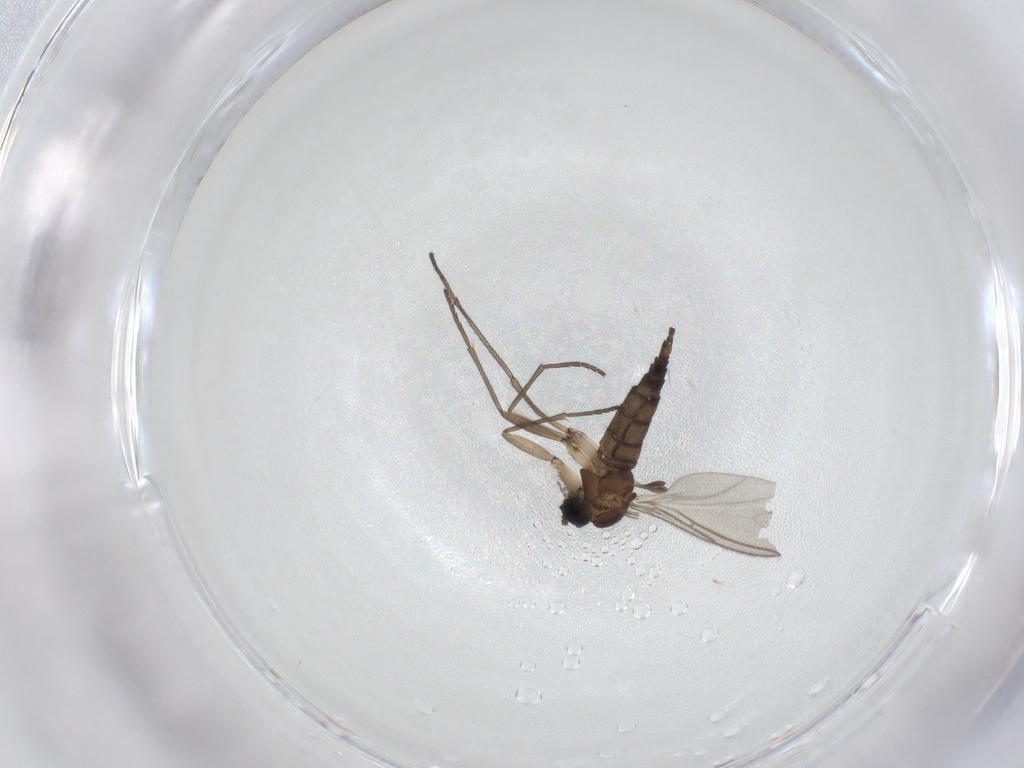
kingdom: Animalia
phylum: Arthropoda
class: Insecta
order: Diptera
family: Sciaridae
